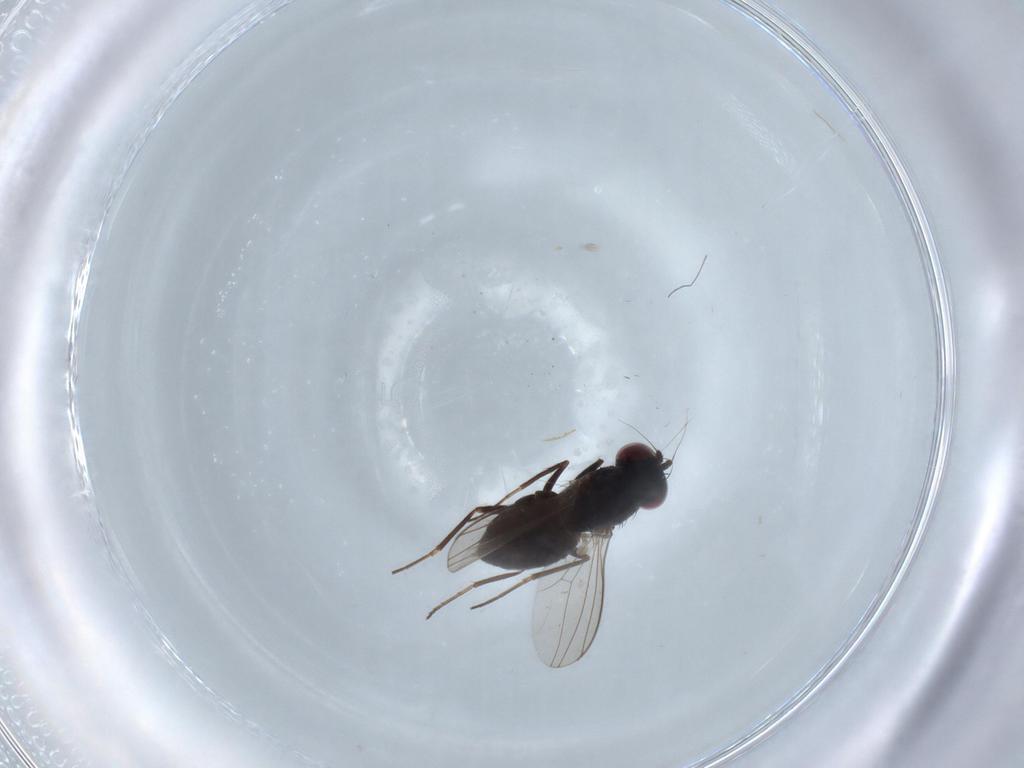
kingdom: Animalia
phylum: Arthropoda
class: Insecta
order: Diptera
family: Dolichopodidae
